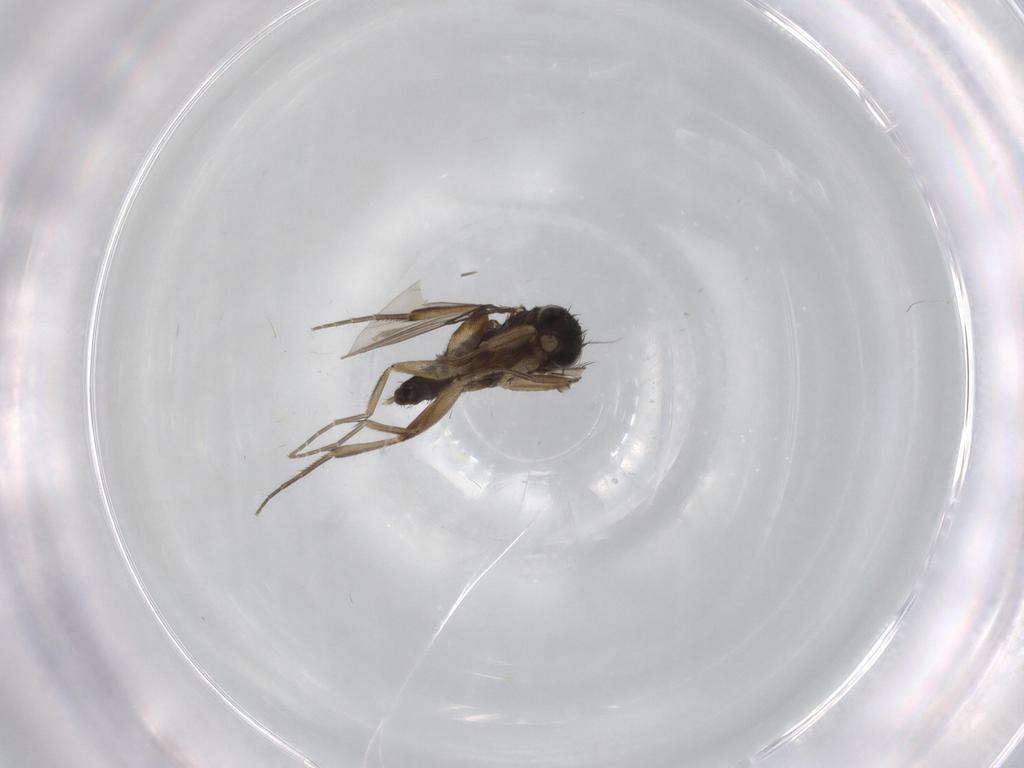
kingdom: Animalia
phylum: Arthropoda
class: Insecta
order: Diptera
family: Phoridae
